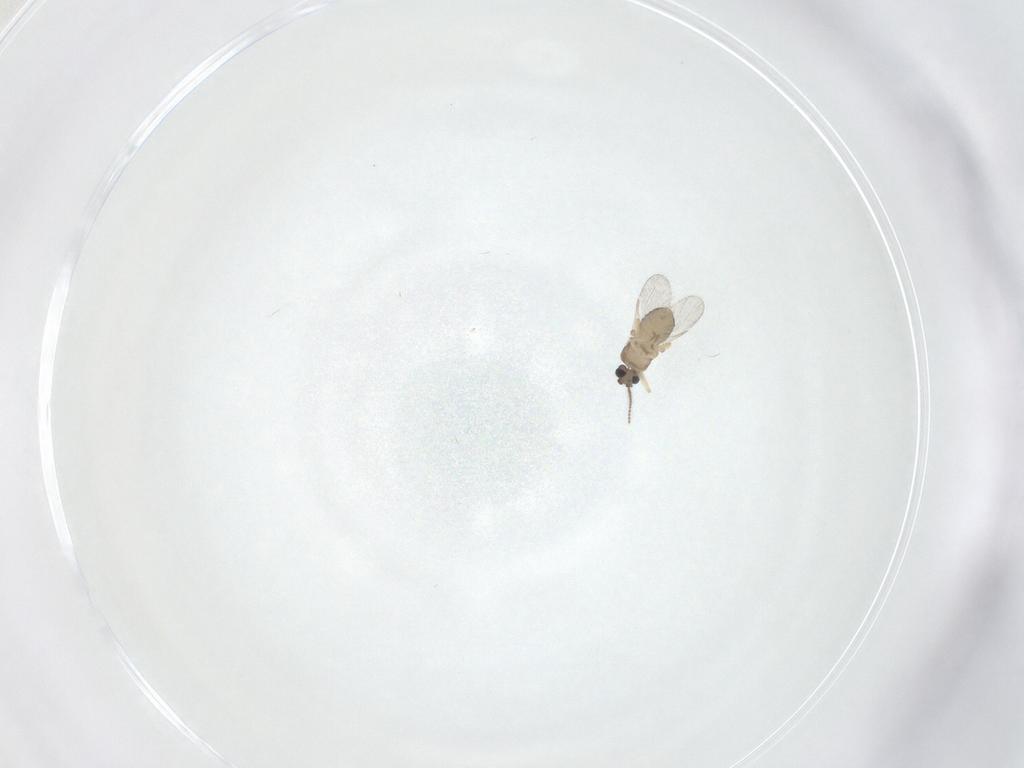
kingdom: Animalia
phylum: Arthropoda
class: Insecta
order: Diptera
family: Ceratopogonidae
